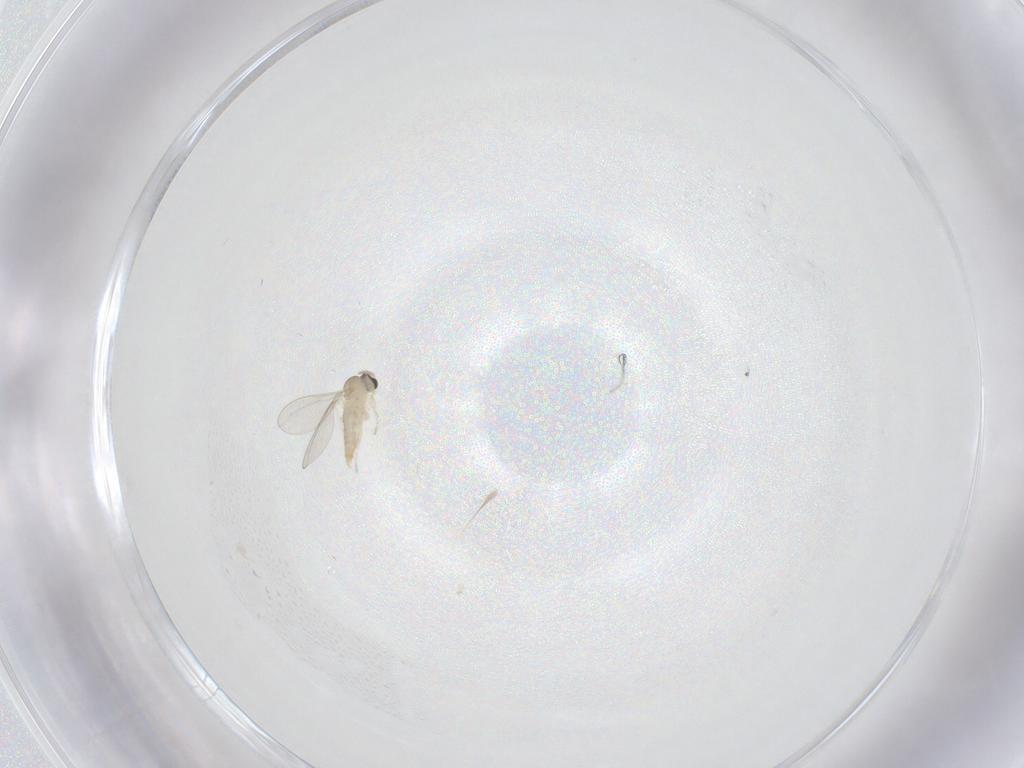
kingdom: Animalia
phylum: Arthropoda
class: Insecta
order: Diptera
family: Cecidomyiidae
